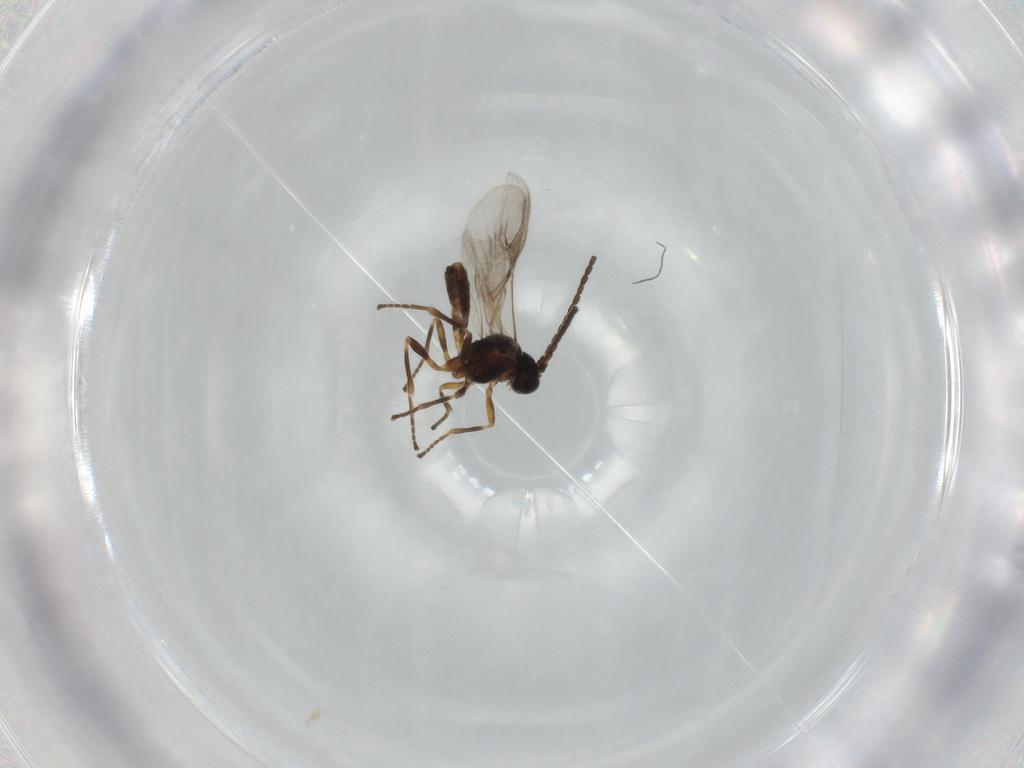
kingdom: Animalia
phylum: Arthropoda
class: Insecta
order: Hymenoptera
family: Braconidae
